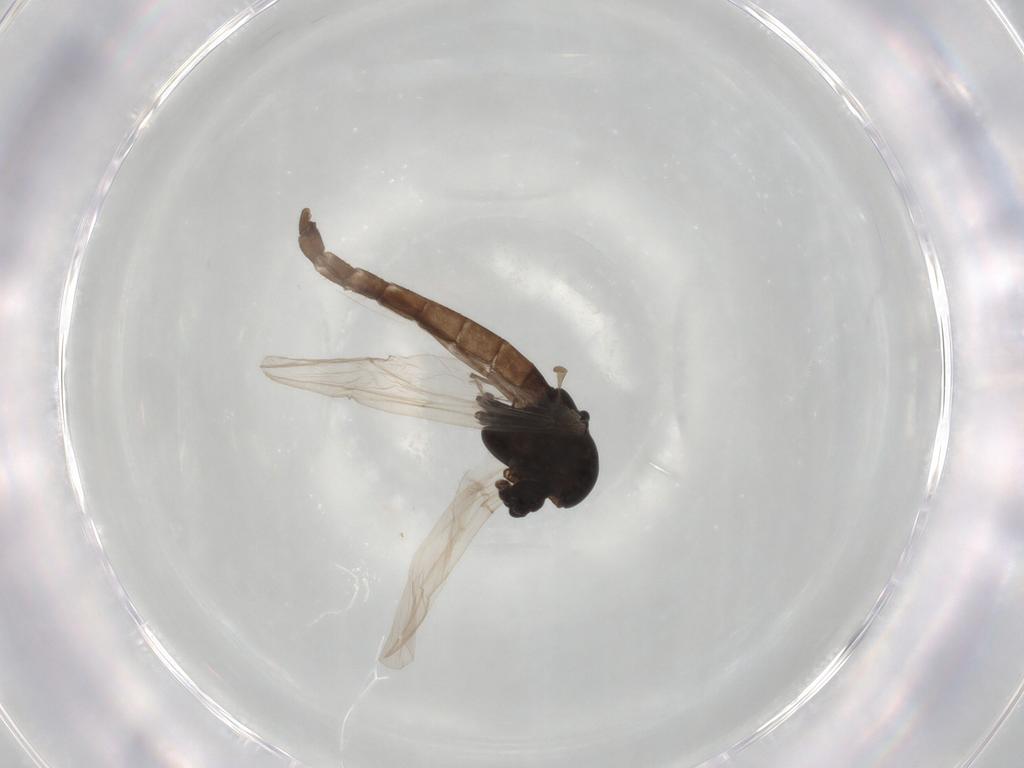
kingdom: Animalia
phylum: Arthropoda
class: Insecta
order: Diptera
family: Chironomidae
